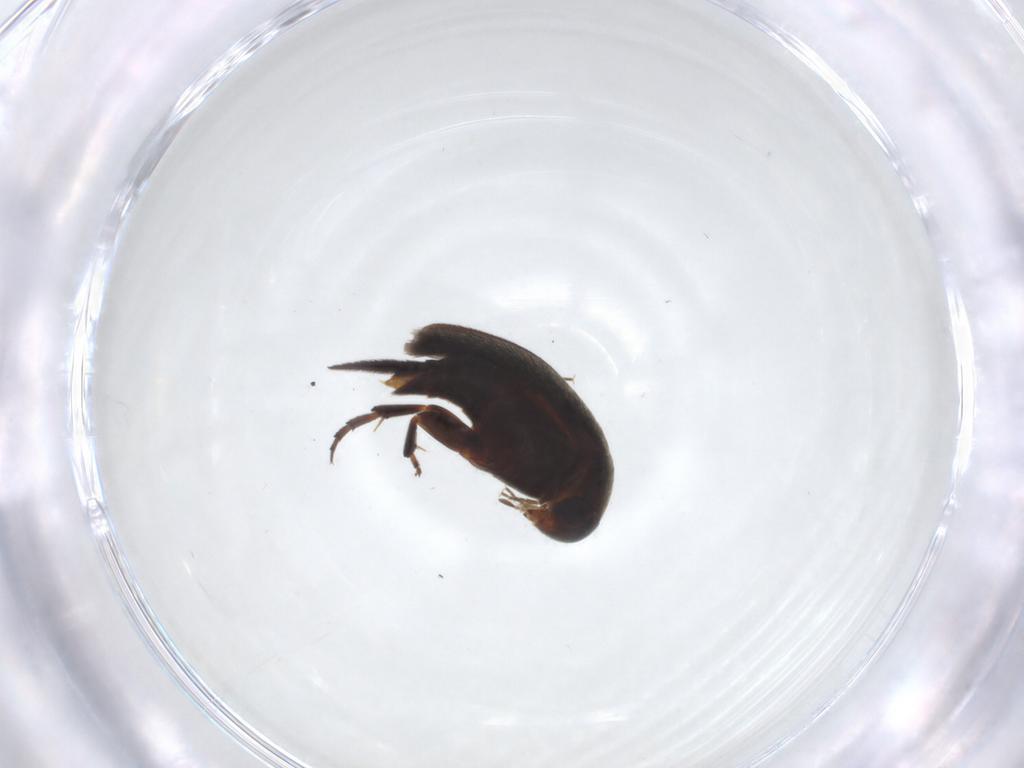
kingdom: Animalia
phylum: Arthropoda
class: Insecta
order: Coleoptera
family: Mordellidae
